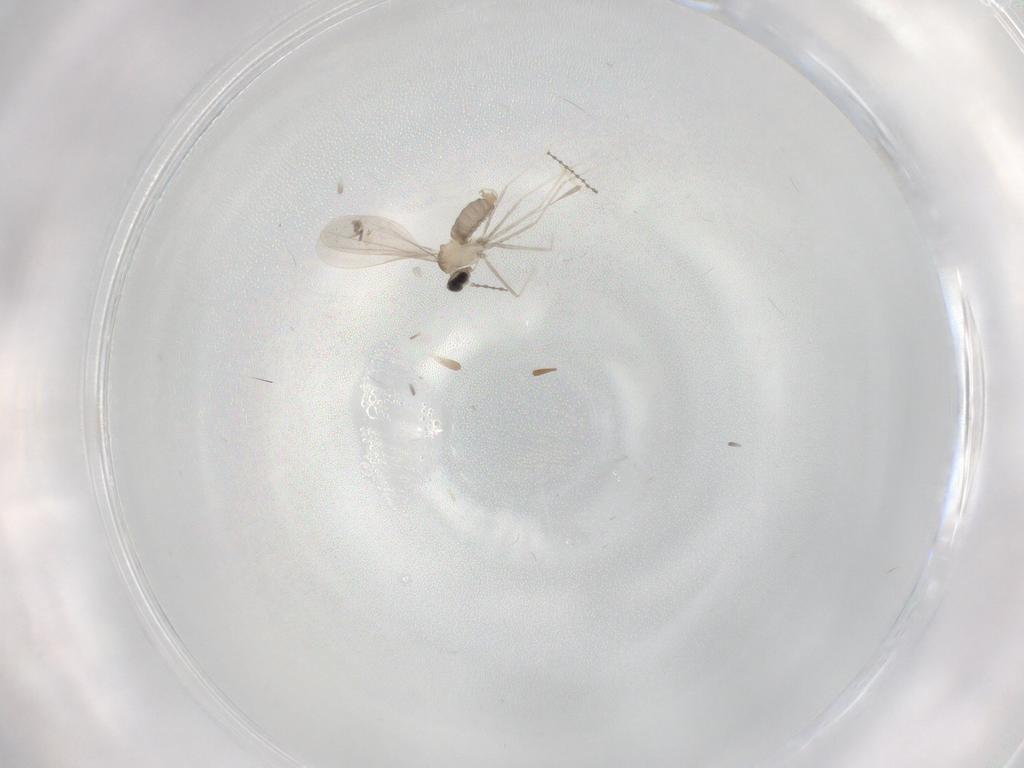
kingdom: Animalia
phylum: Arthropoda
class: Insecta
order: Diptera
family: Cecidomyiidae
